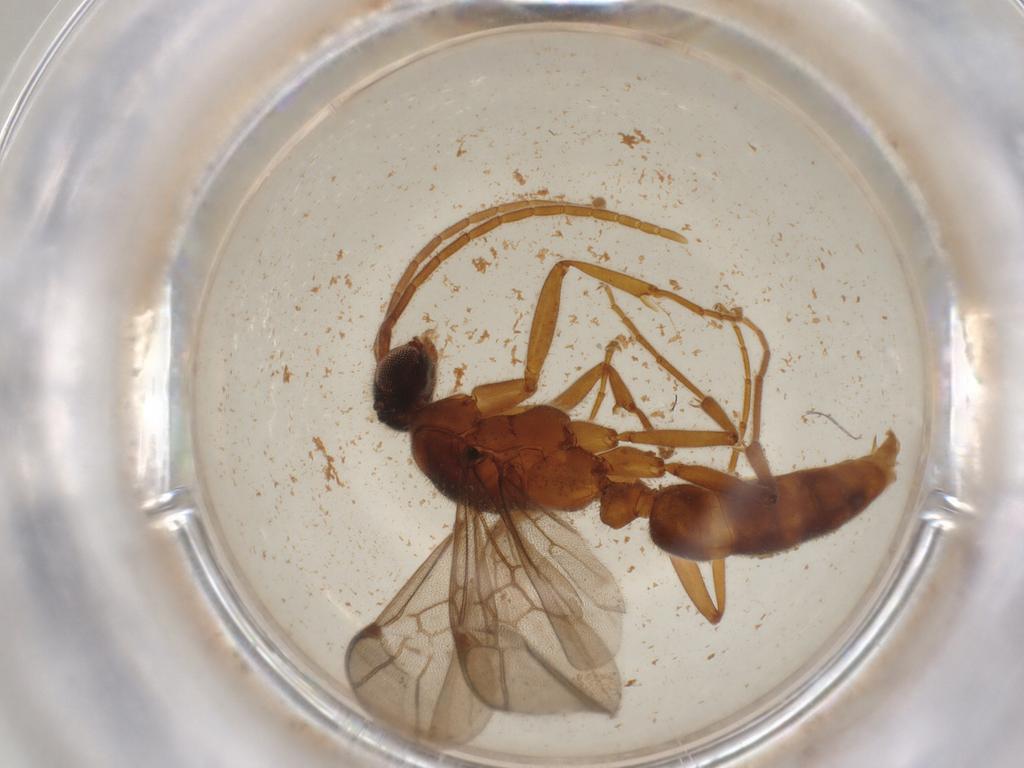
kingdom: Animalia
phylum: Arthropoda
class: Insecta
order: Hymenoptera
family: Formicidae
